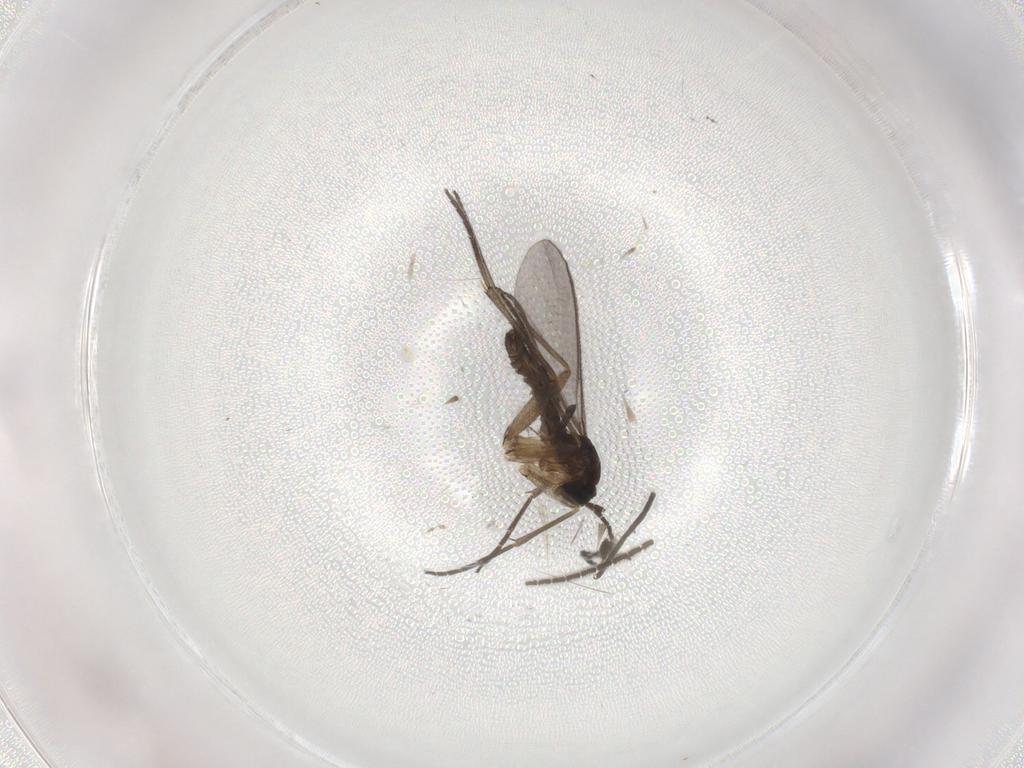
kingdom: Animalia
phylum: Arthropoda
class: Insecta
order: Diptera
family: Sciaridae
